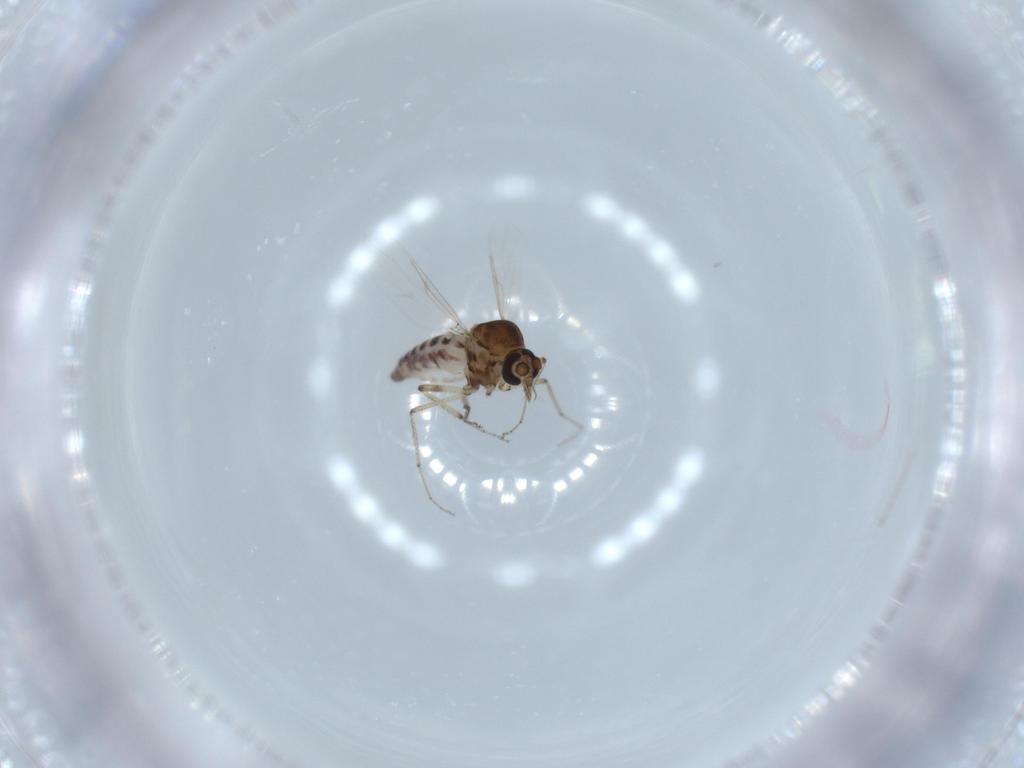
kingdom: Animalia
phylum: Arthropoda
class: Insecta
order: Diptera
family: Ceratopogonidae
